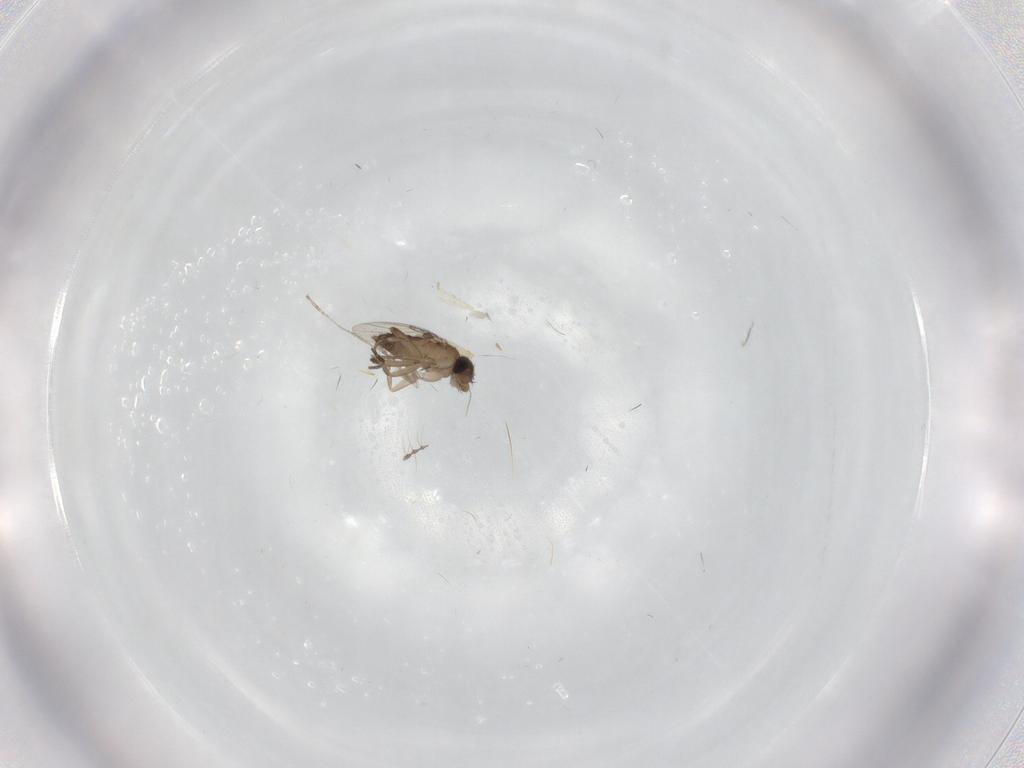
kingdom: Animalia
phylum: Arthropoda
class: Insecta
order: Diptera
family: Phoridae
